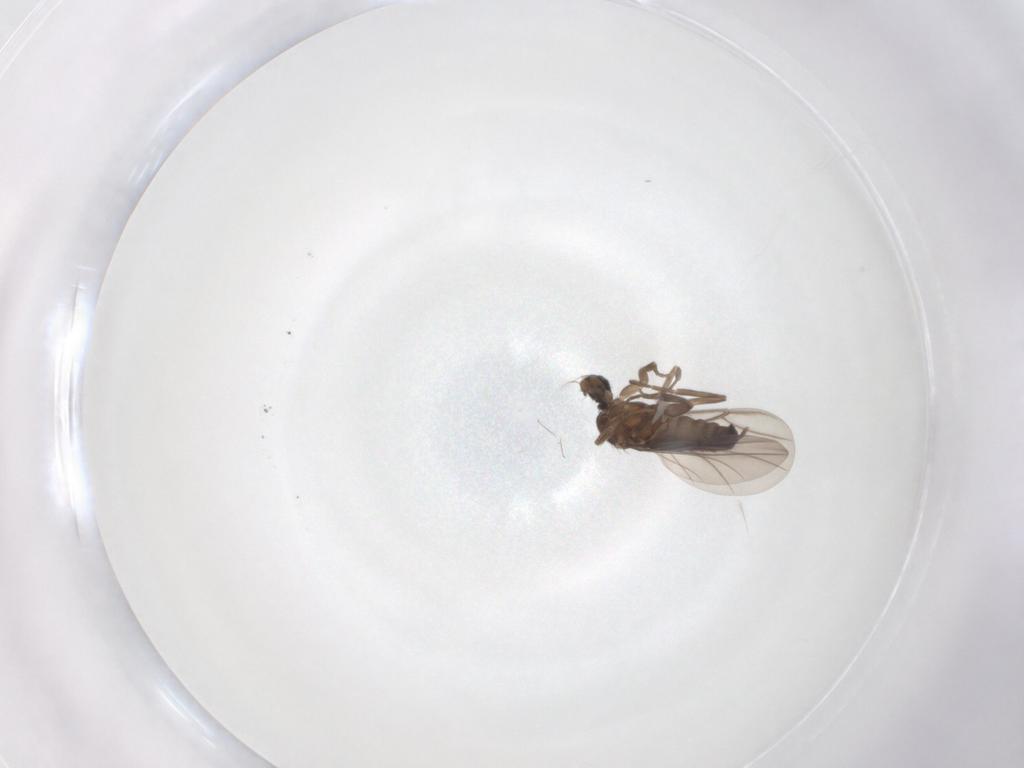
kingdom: Animalia
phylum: Arthropoda
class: Insecta
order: Diptera
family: Phoridae
